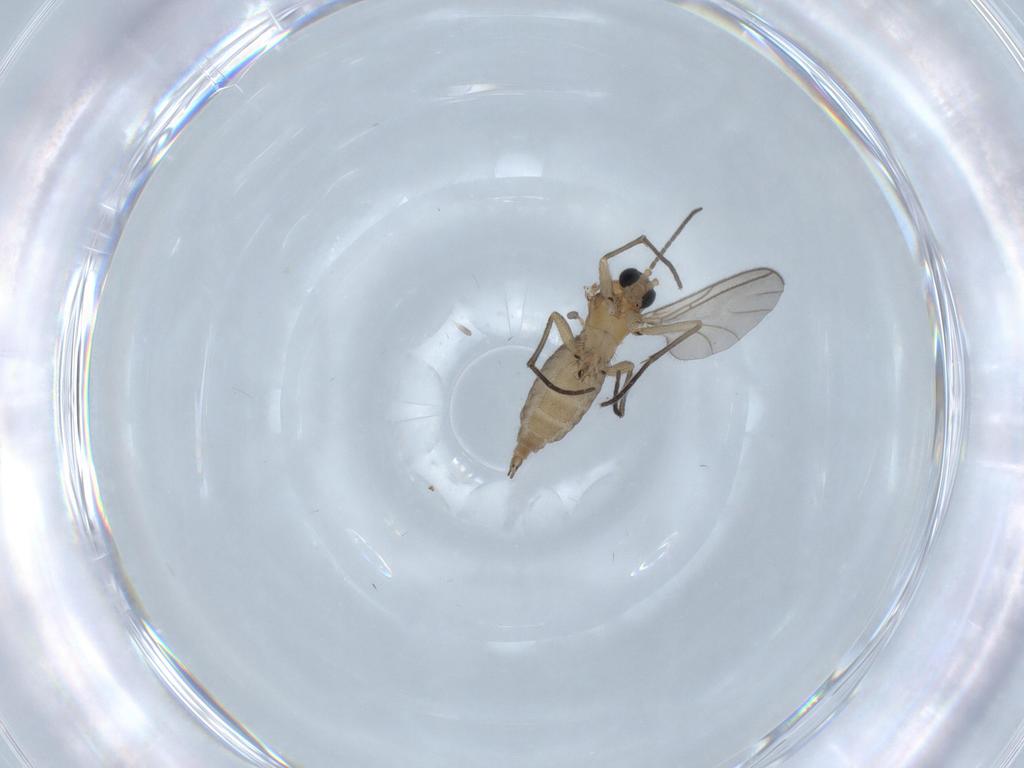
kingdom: Animalia
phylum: Arthropoda
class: Insecta
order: Diptera
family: Sciaridae
